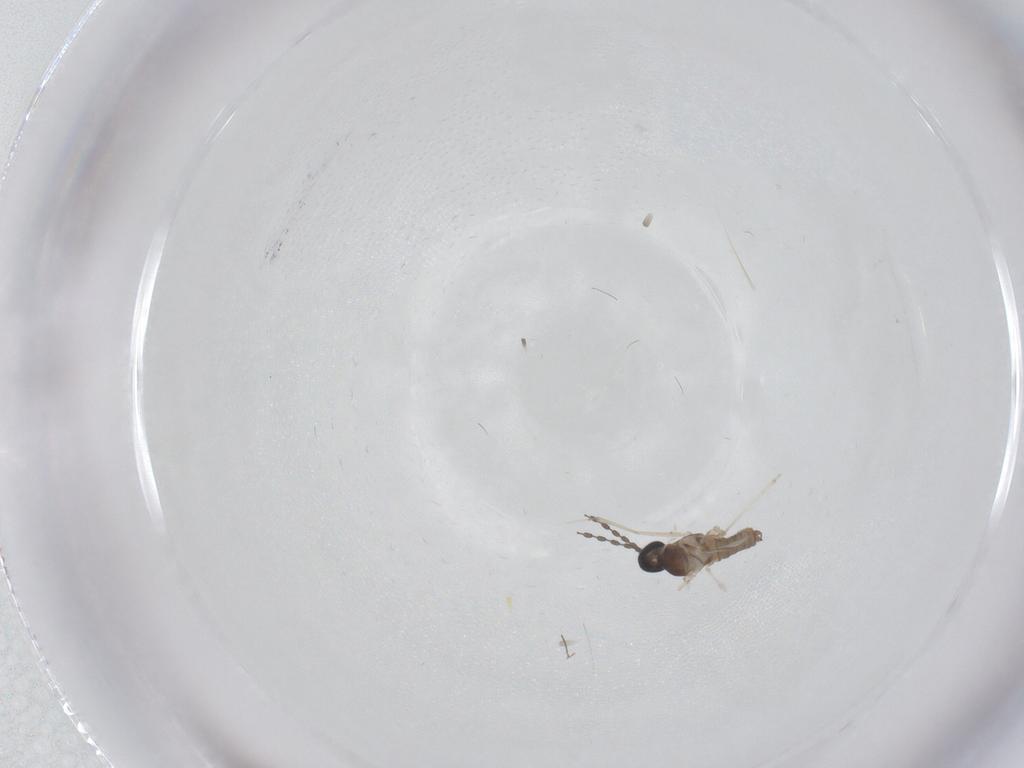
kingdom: Animalia
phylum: Arthropoda
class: Insecta
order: Diptera
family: Cecidomyiidae
